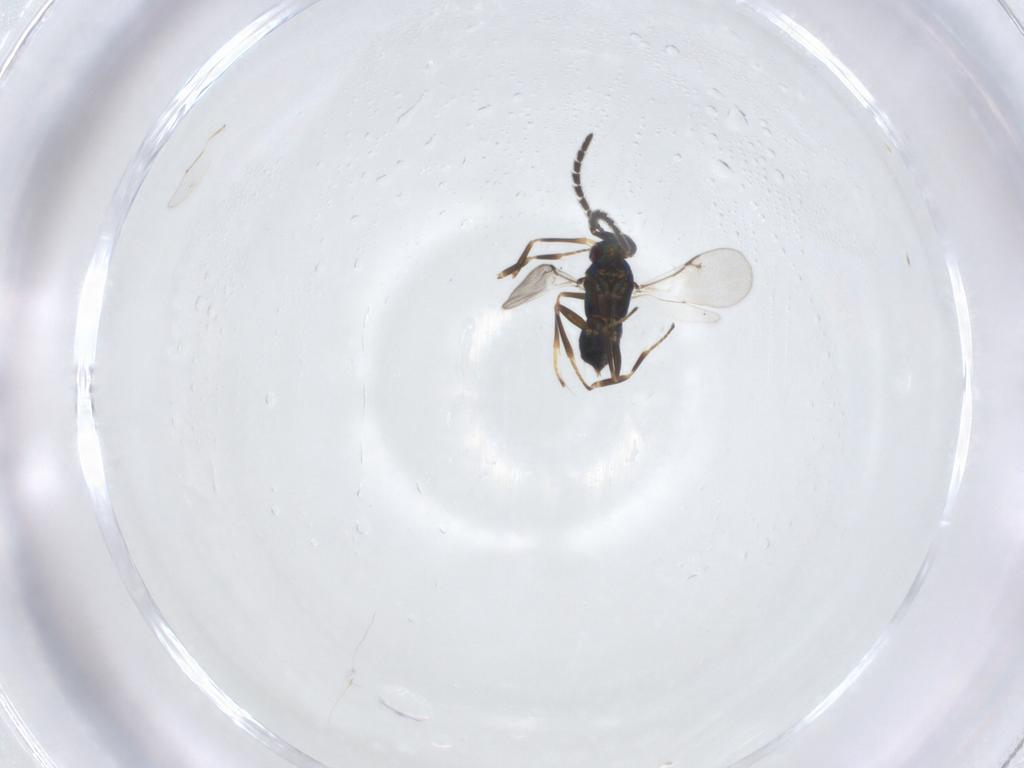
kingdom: Animalia
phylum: Arthropoda
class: Insecta
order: Hymenoptera
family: Encyrtidae
